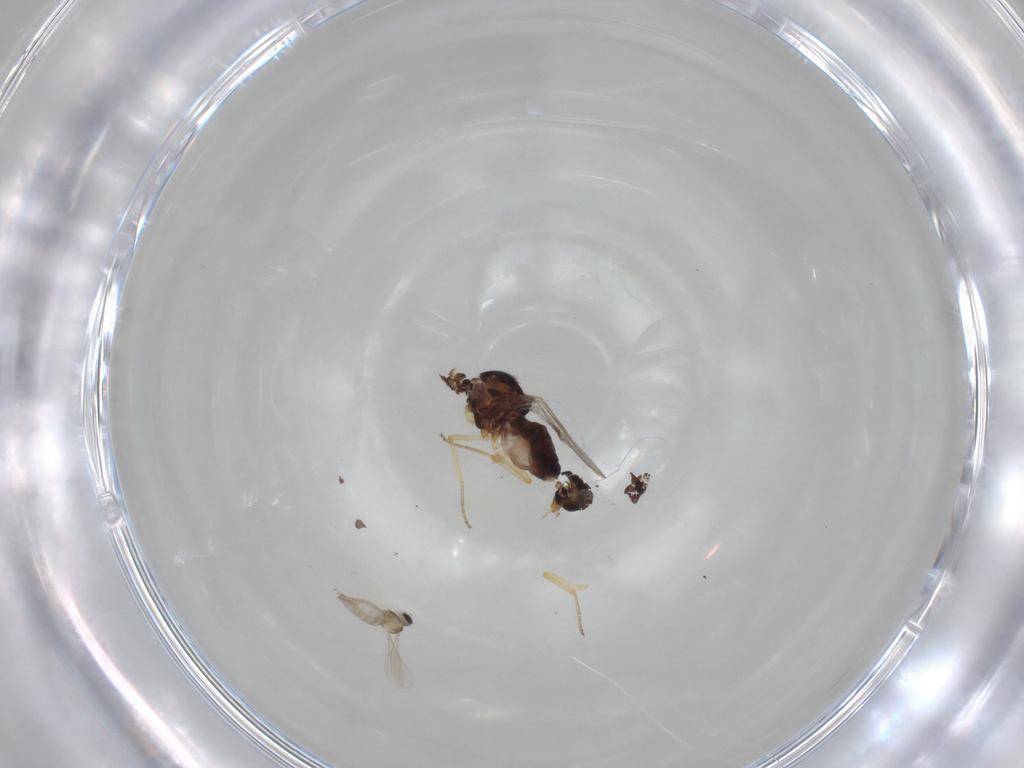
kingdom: Animalia
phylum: Arthropoda
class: Insecta
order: Diptera
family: Ceratopogonidae
